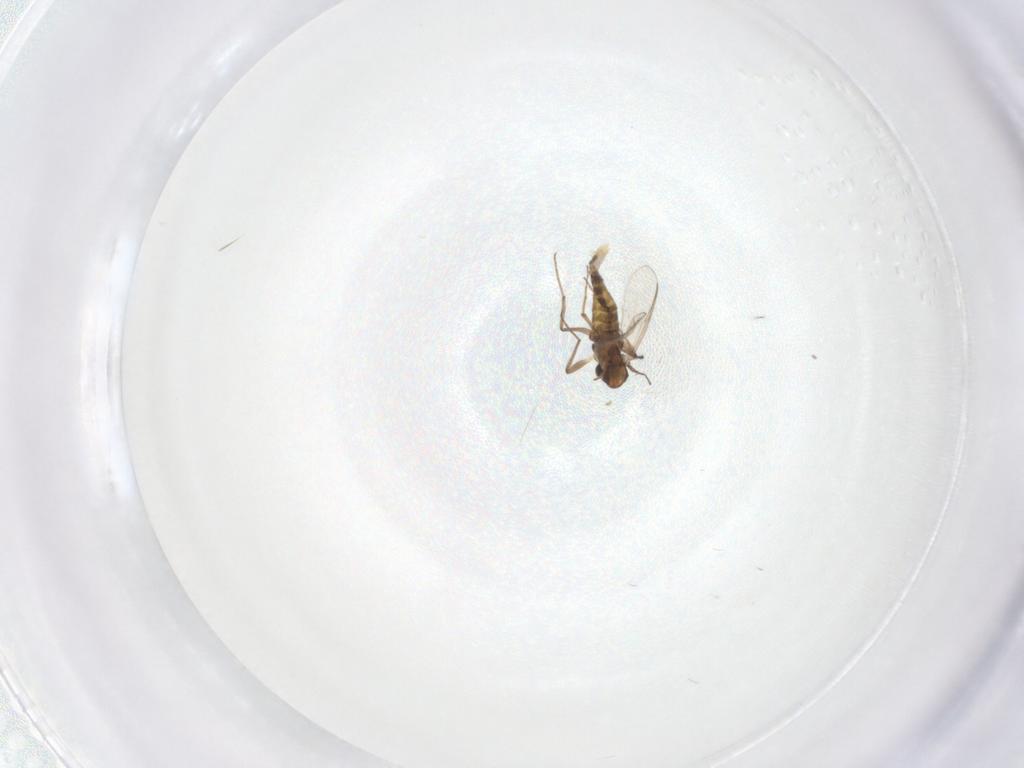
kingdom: Animalia
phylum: Arthropoda
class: Insecta
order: Diptera
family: Chironomidae
